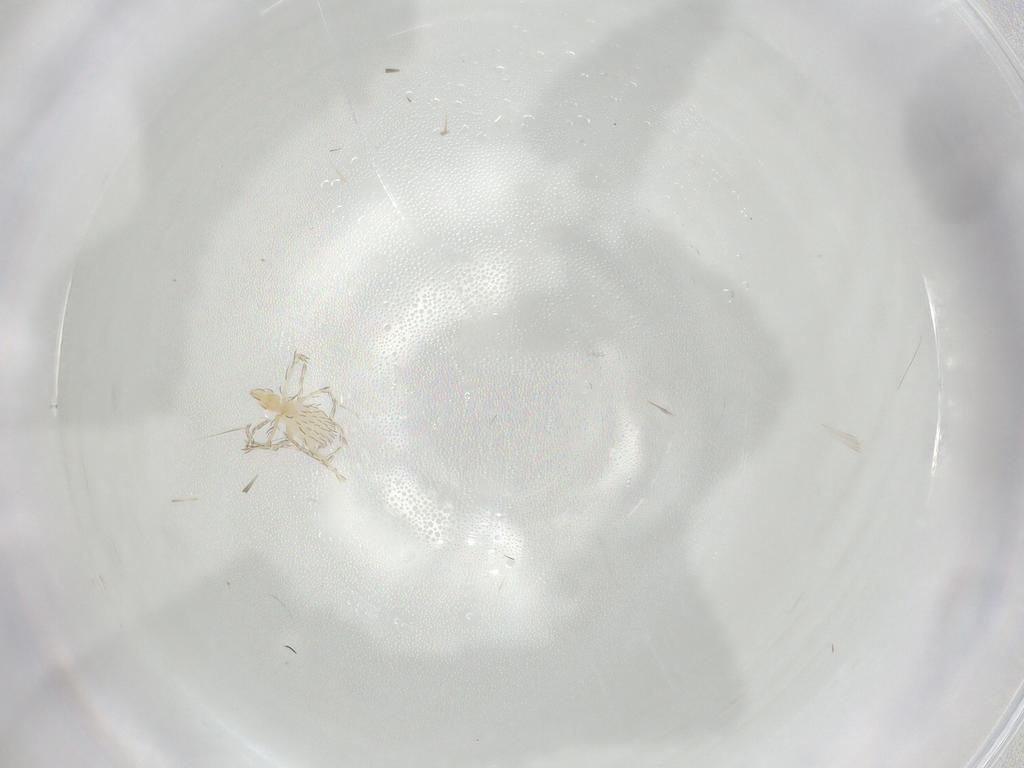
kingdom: Animalia
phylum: Arthropoda
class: Arachnida
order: Trombidiformes
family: Erythraeidae
